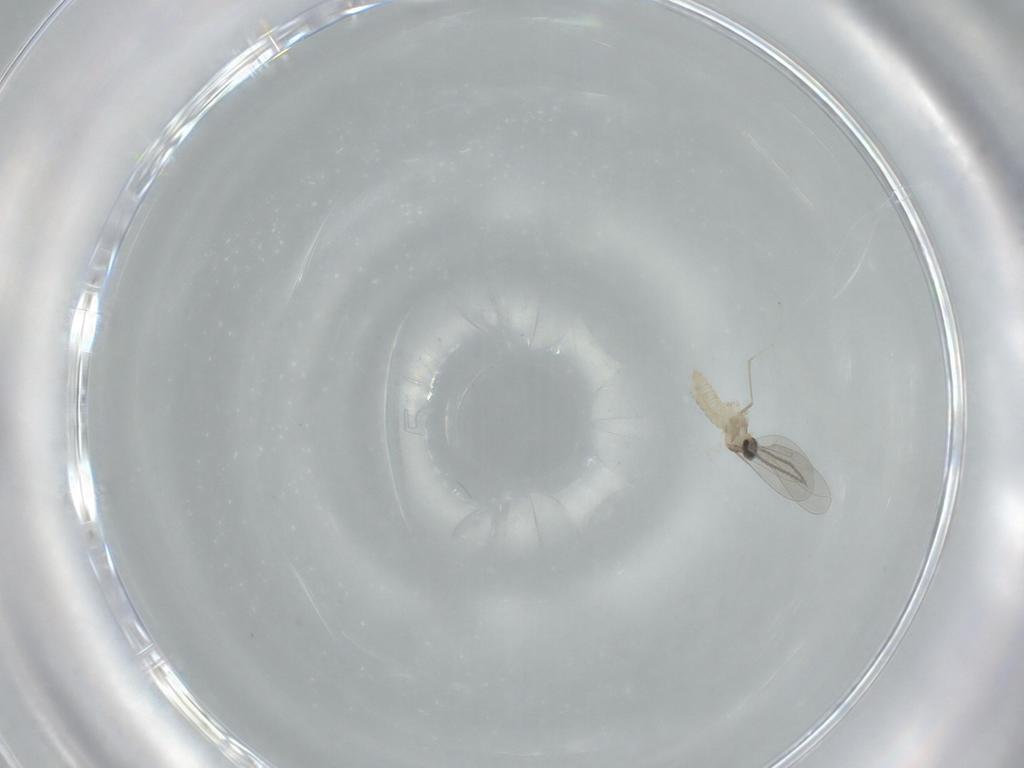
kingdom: Animalia
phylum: Arthropoda
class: Insecta
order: Diptera
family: Cecidomyiidae
